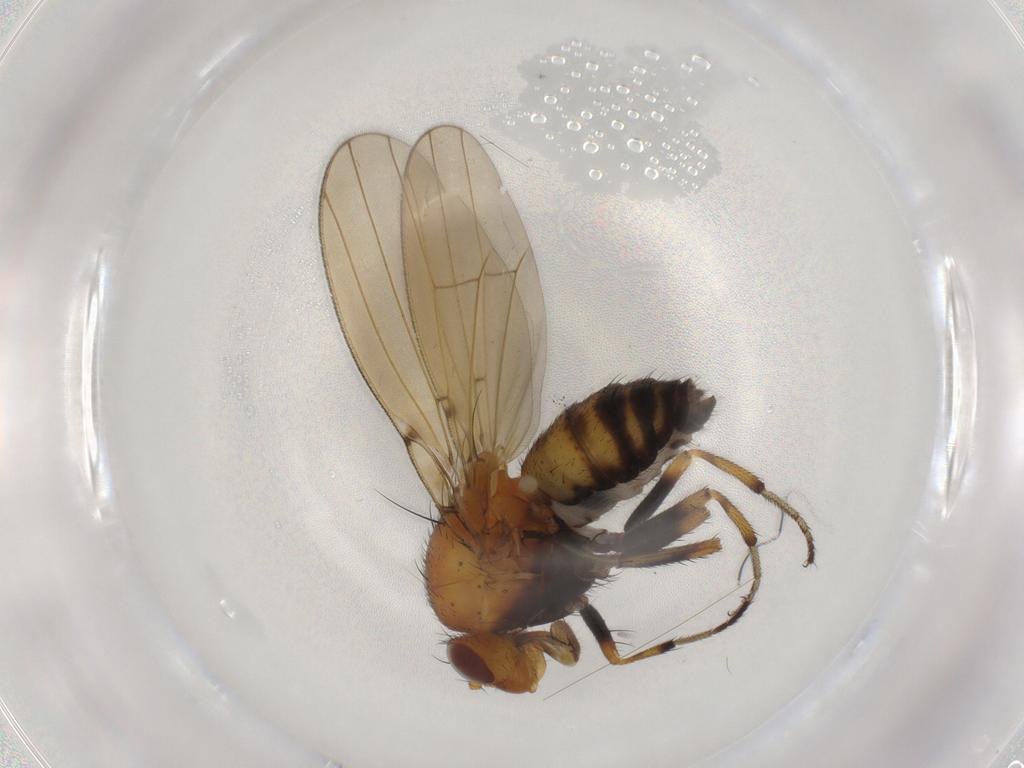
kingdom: Animalia
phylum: Arthropoda
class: Insecta
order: Diptera
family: Lauxaniidae
